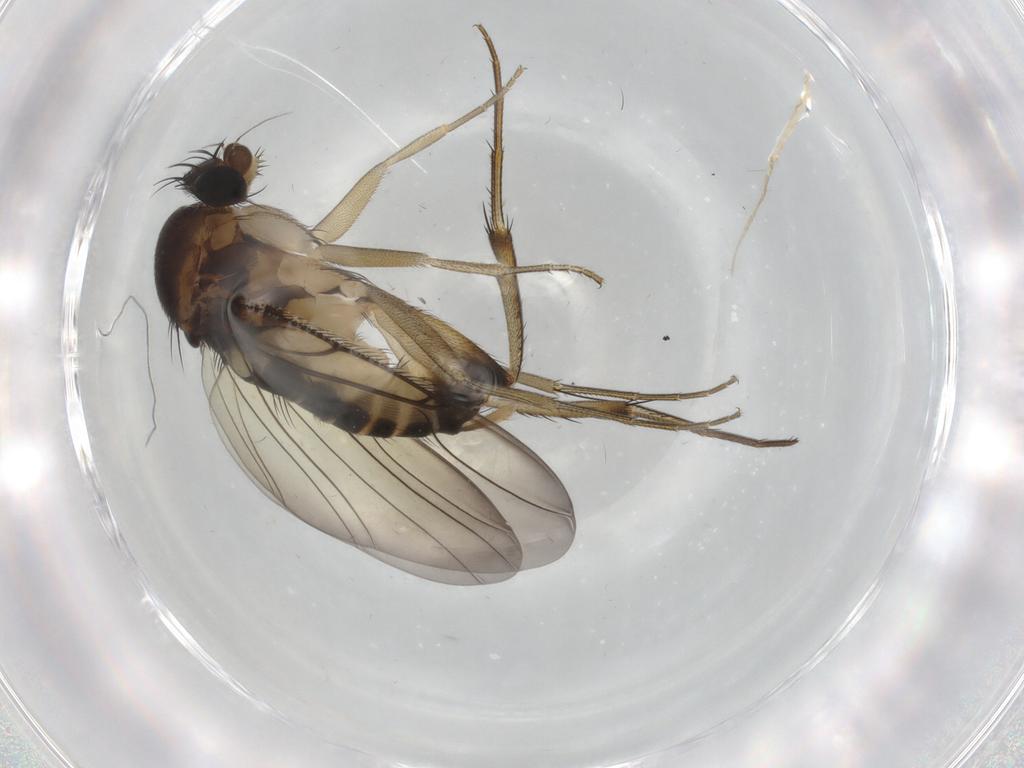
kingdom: Animalia
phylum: Arthropoda
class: Insecta
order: Diptera
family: Phoridae
